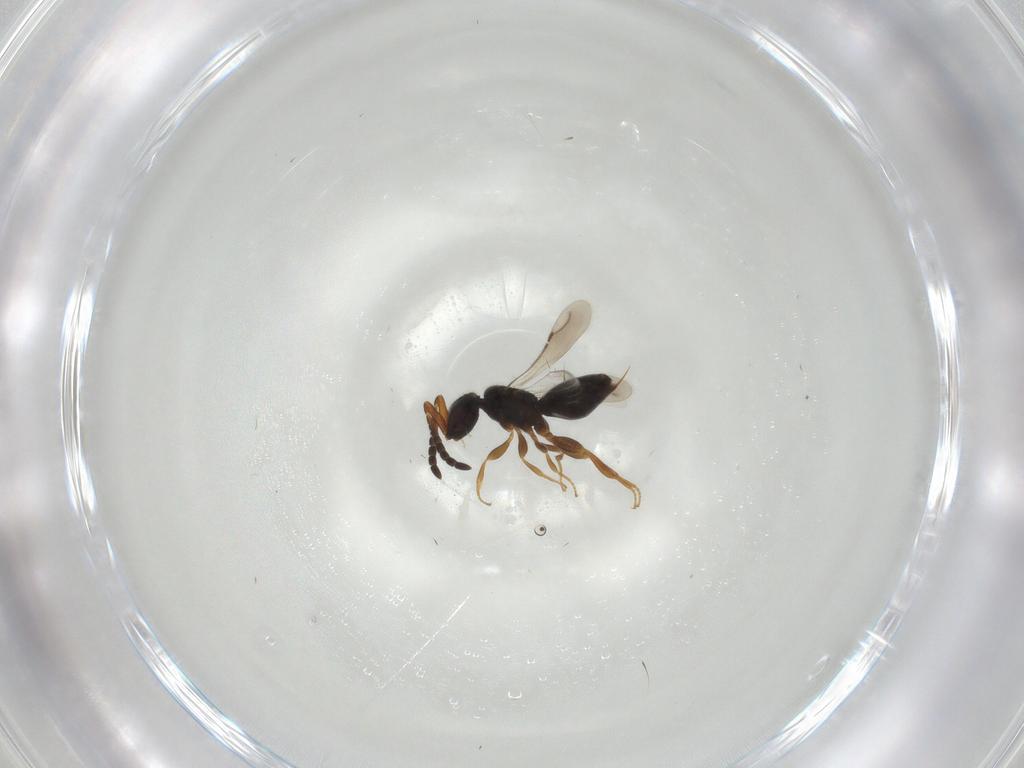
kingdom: Animalia
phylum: Arthropoda
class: Insecta
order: Hymenoptera
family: Ceraphronidae
